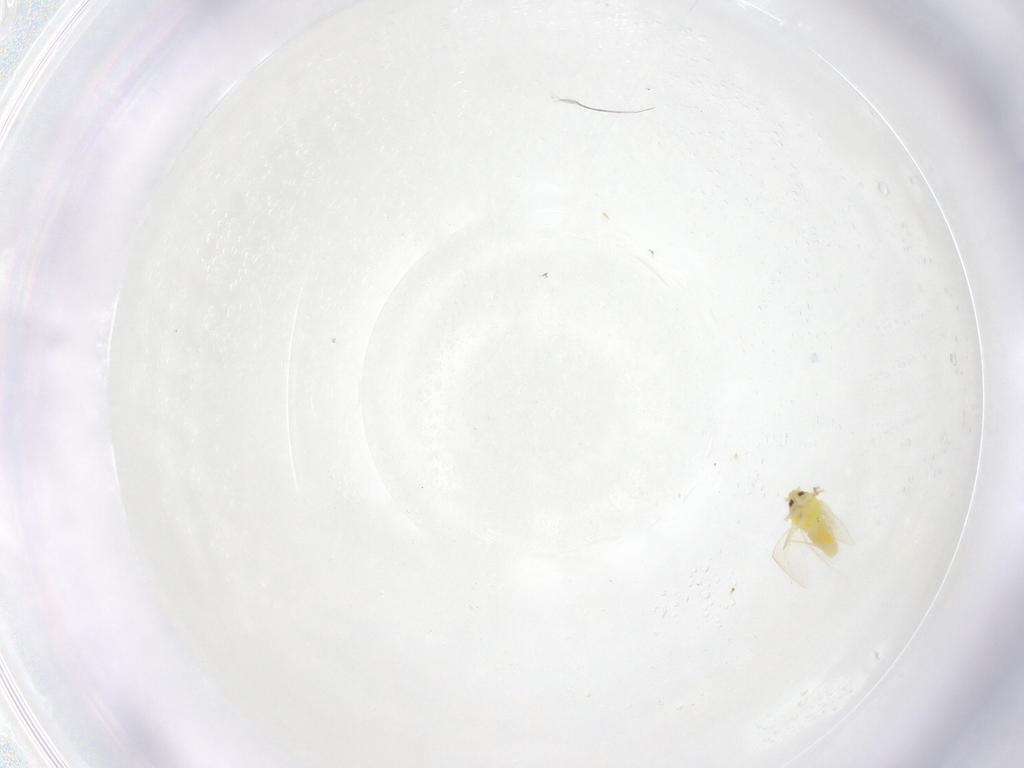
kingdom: Animalia
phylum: Arthropoda
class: Insecta
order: Hemiptera
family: Aleyrodidae
